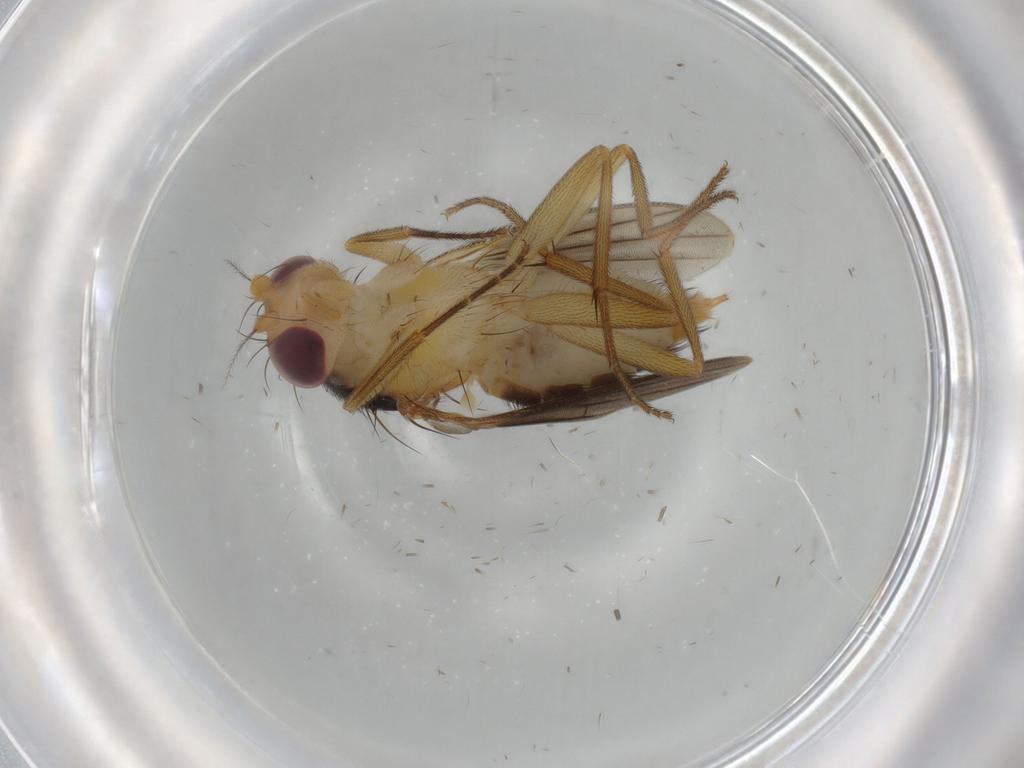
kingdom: Animalia
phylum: Arthropoda
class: Insecta
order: Diptera
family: Clusiidae
